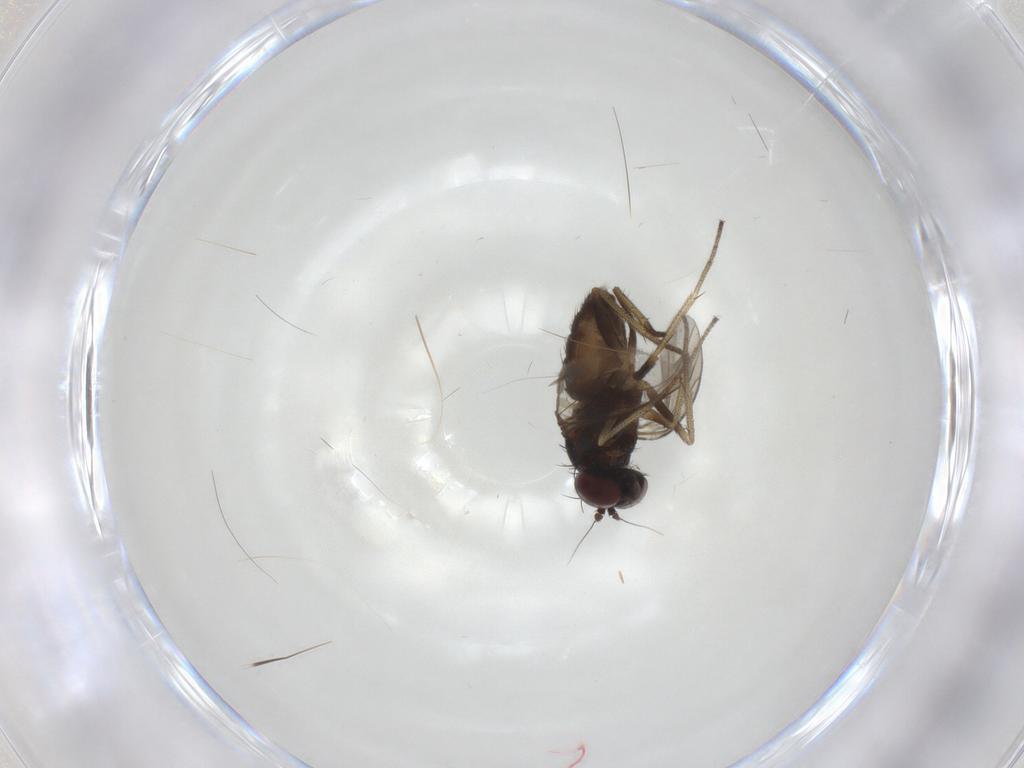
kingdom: Animalia
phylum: Arthropoda
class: Insecta
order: Diptera
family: Dolichopodidae
